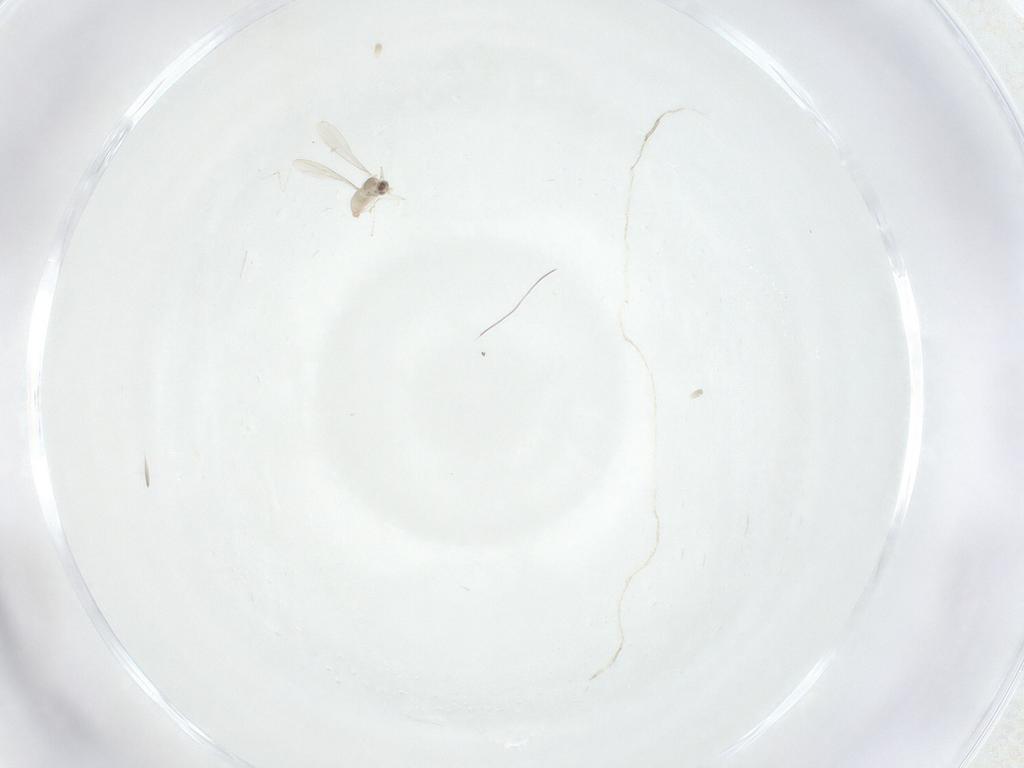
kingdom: Animalia
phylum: Arthropoda
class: Insecta
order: Diptera
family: Cecidomyiidae
